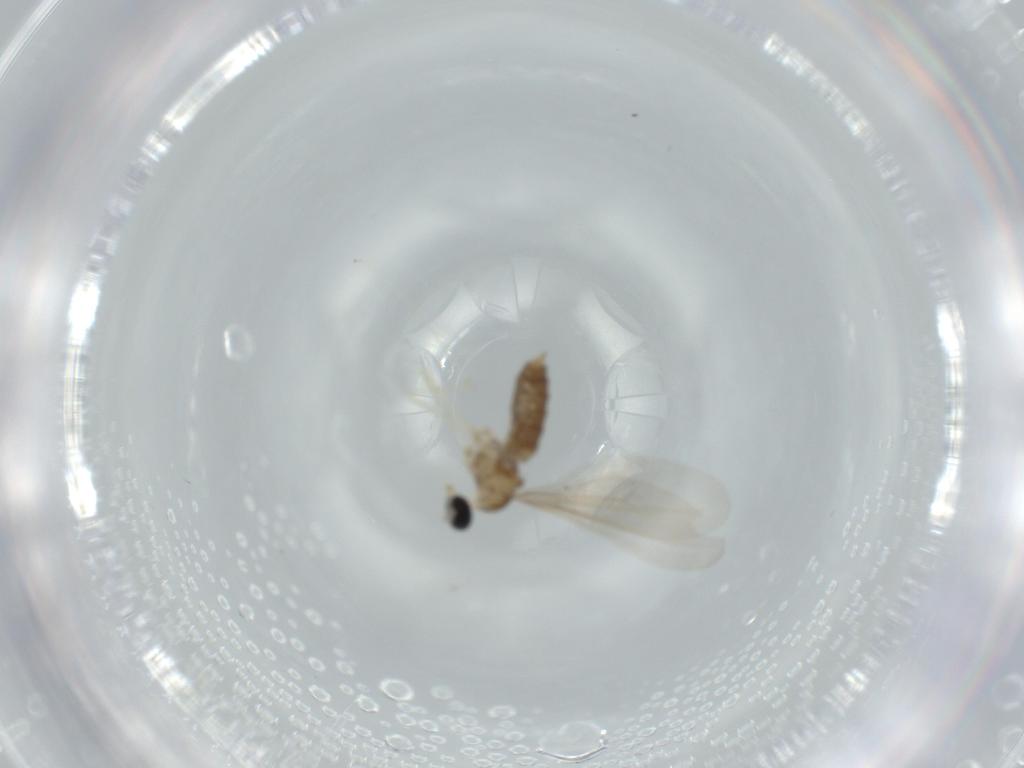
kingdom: Animalia
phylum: Arthropoda
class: Insecta
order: Diptera
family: Cecidomyiidae
